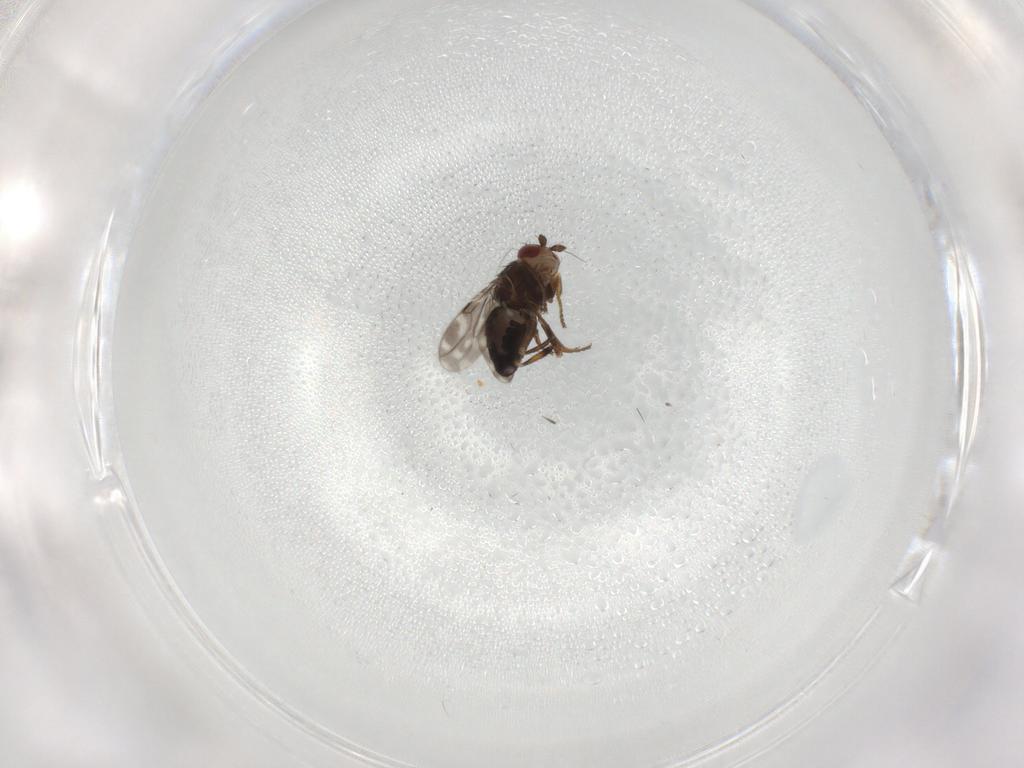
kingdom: Animalia
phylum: Arthropoda
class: Insecta
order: Diptera
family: Sphaeroceridae
